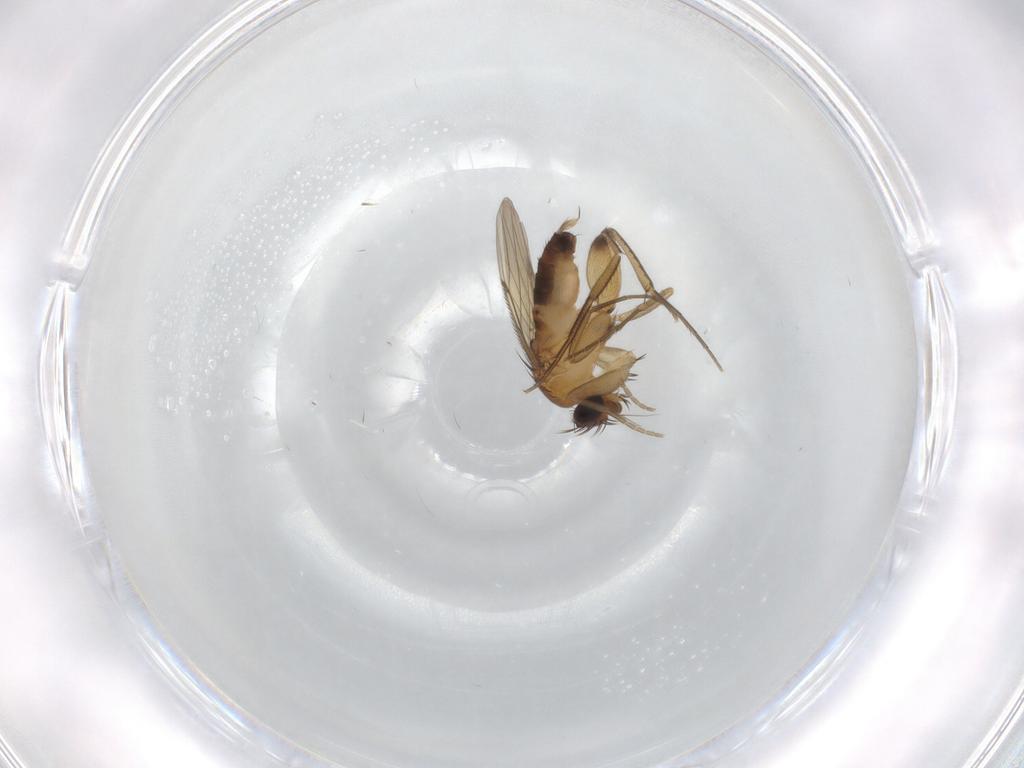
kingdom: Animalia
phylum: Arthropoda
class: Insecta
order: Diptera
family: Phoridae
